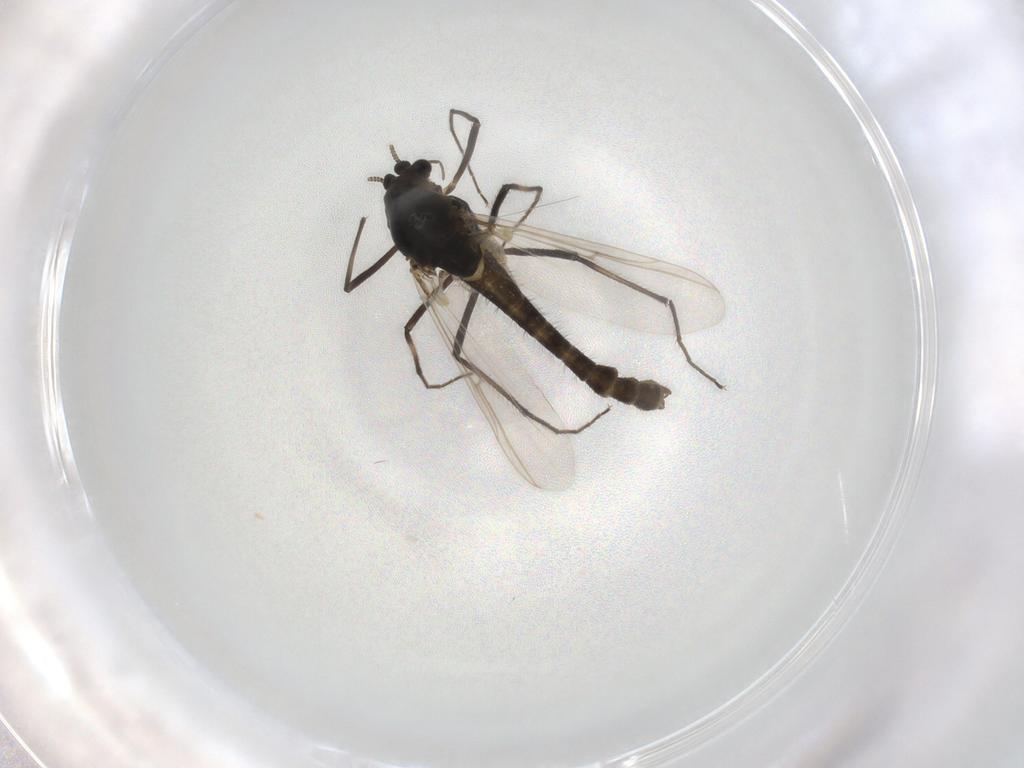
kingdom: Animalia
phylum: Arthropoda
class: Insecta
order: Diptera
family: Chironomidae
